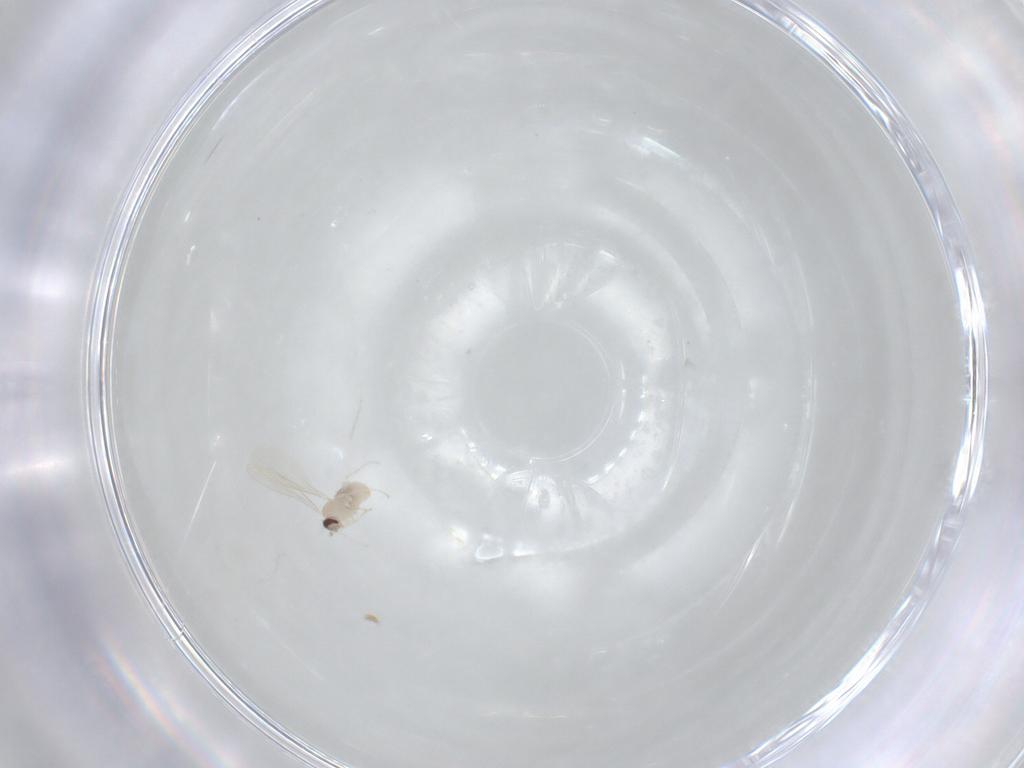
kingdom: Animalia
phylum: Arthropoda
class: Insecta
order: Diptera
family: Cecidomyiidae
